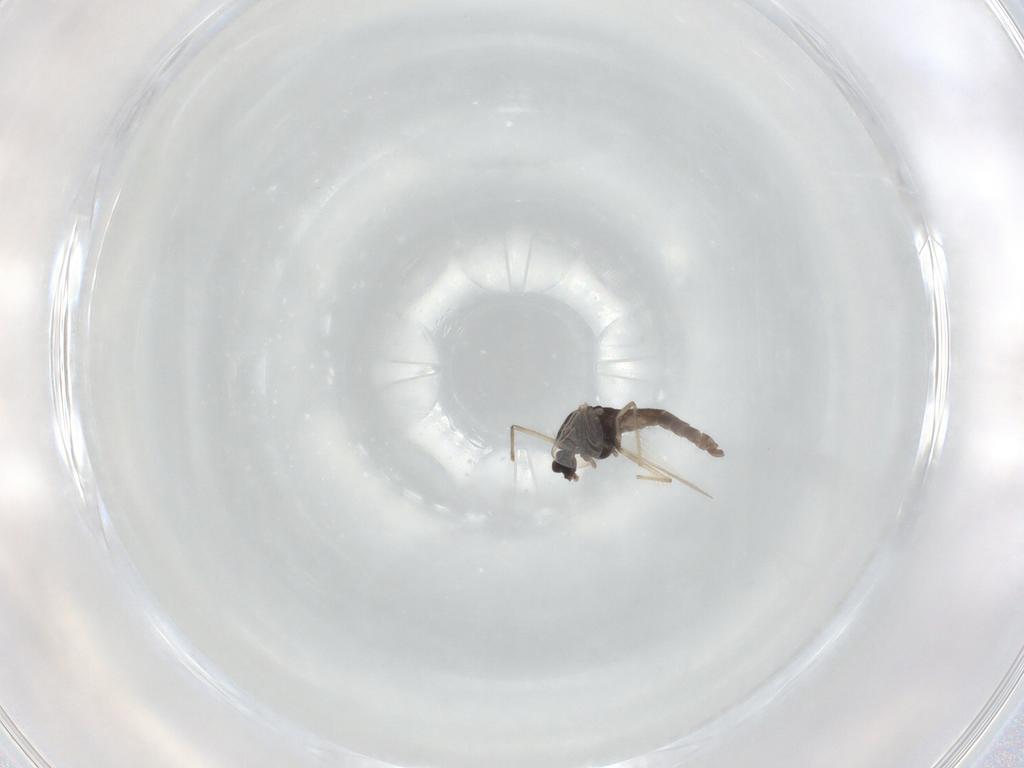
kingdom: Animalia
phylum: Arthropoda
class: Insecta
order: Diptera
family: Chironomidae
